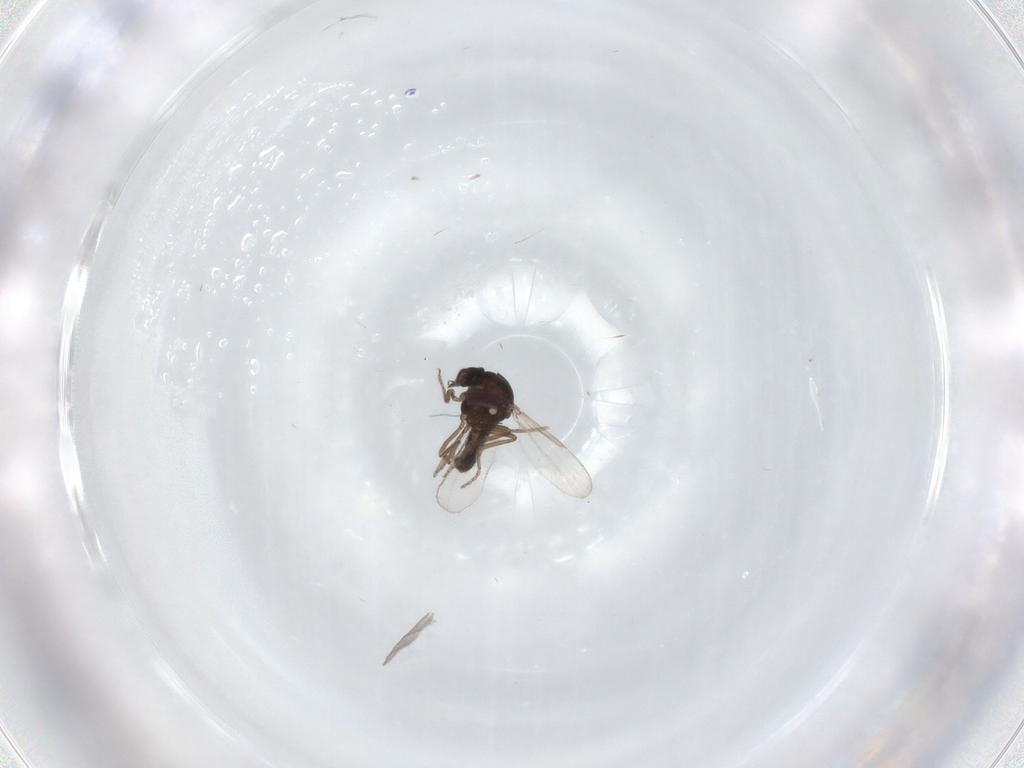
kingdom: Animalia
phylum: Arthropoda
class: Insecta
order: Diptera
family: Ceratopogonidae
